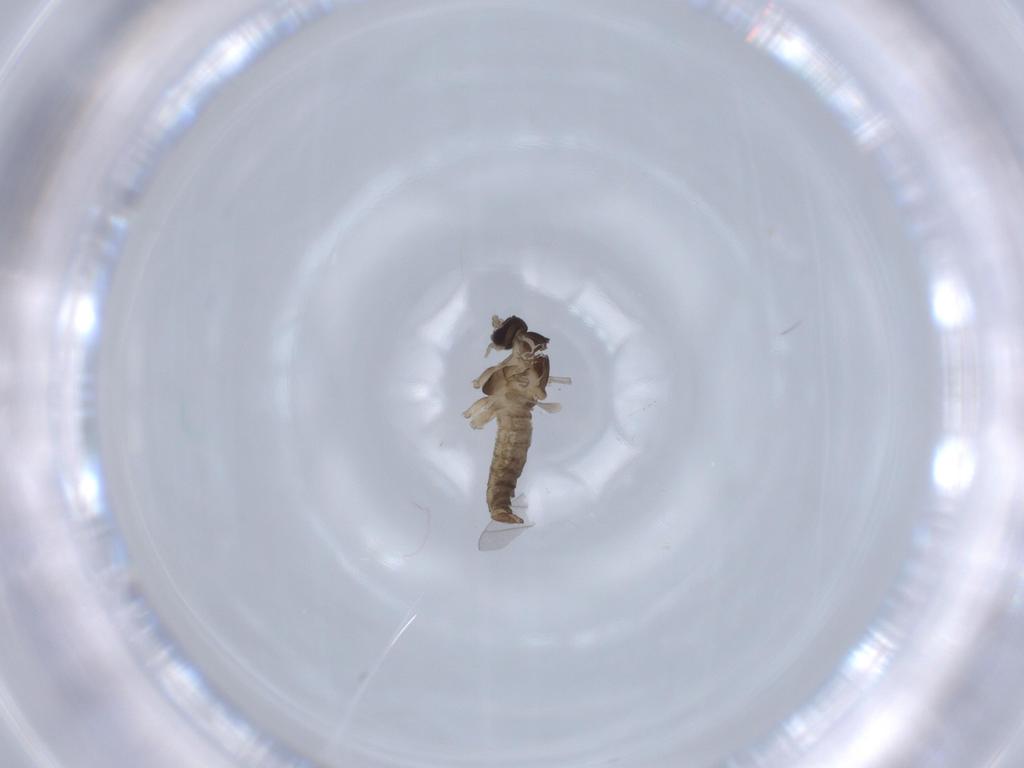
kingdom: Animalia
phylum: Arthropoda
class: Insecta
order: Diptera
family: Cecidomyiidae
